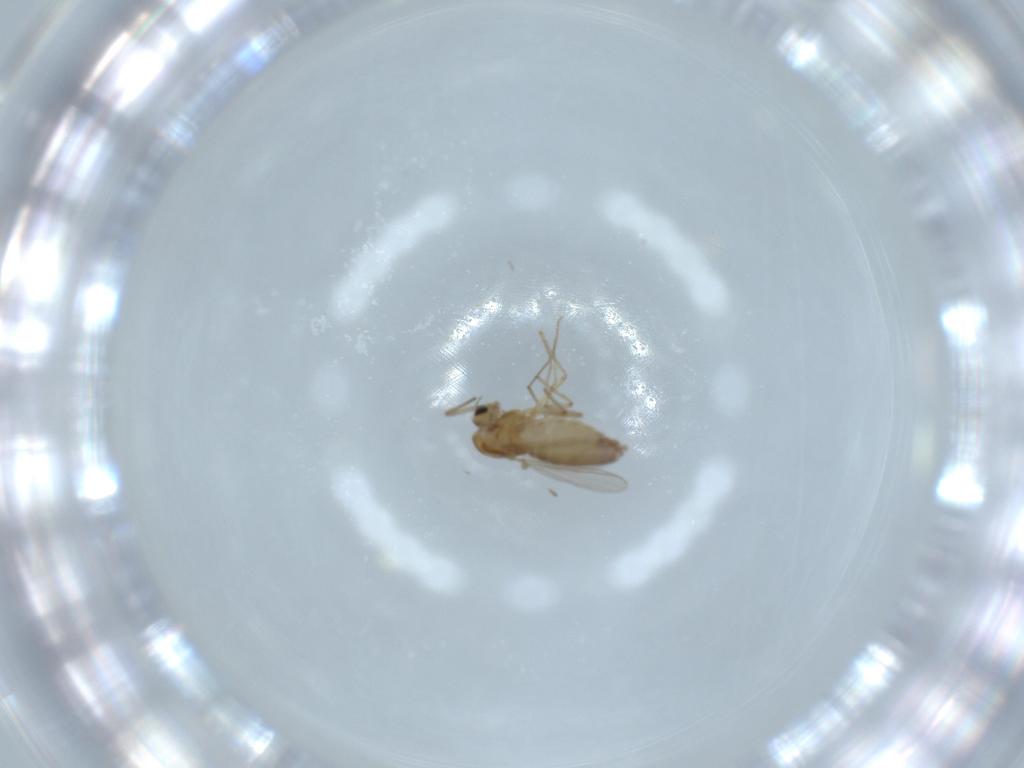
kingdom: Animalia
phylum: Arthropoda
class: Insecta
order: Diptera
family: Chironomidae
